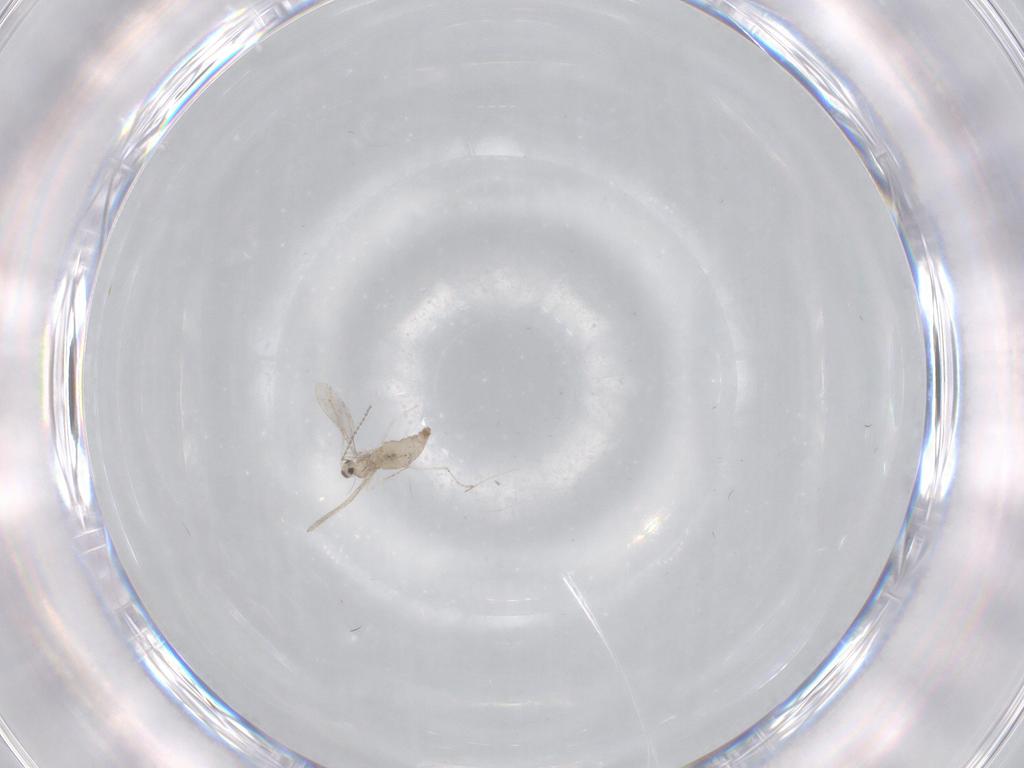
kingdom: Animalia
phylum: Arthropoda
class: Insecta
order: Diptera
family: Cecidomyiidae
